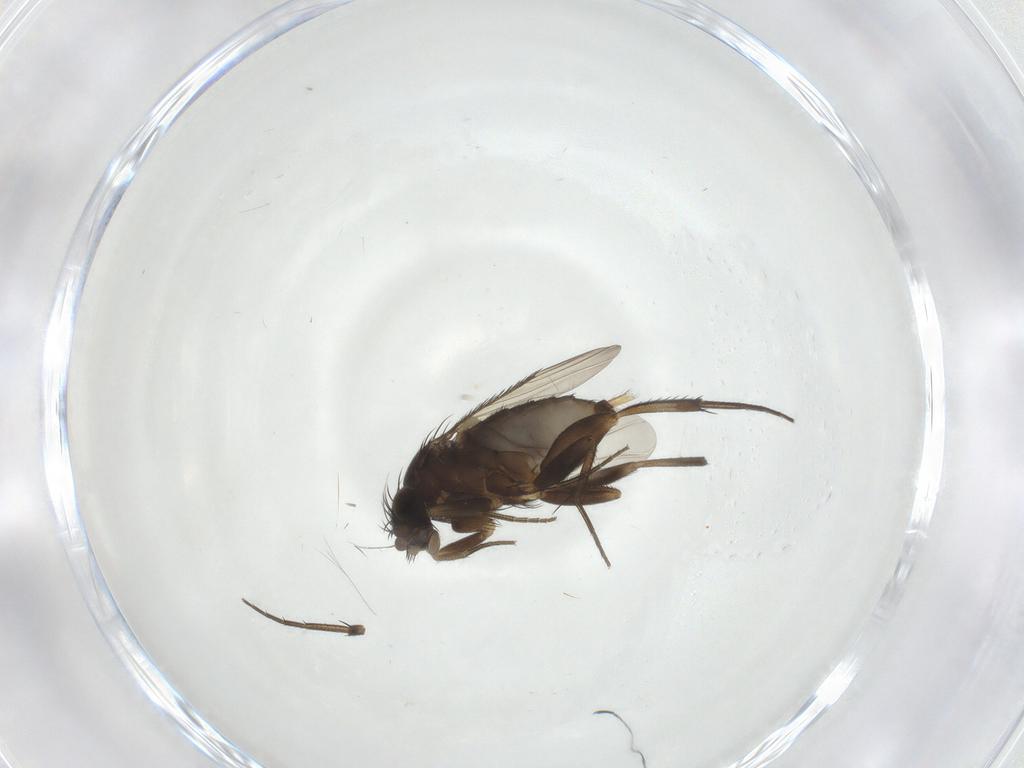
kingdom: Animalia
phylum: Arthropoda
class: Insecta
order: Diptera
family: Phoridae
